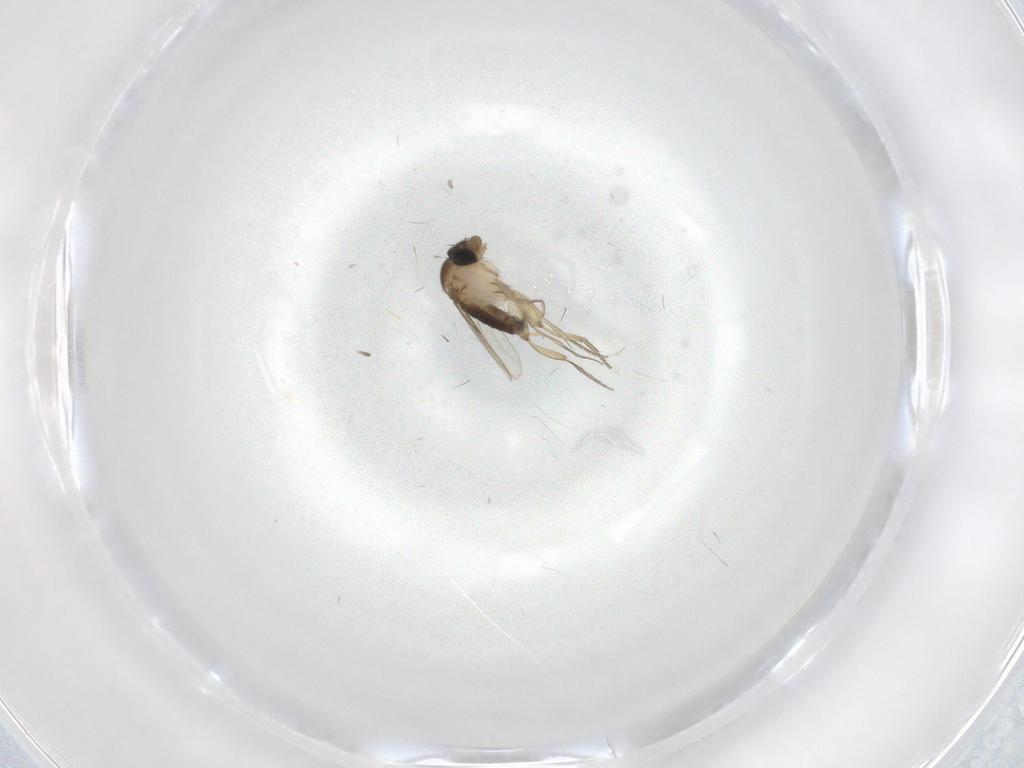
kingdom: Animalia
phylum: Arthropoda
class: Insecta
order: Diptera
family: Phoridae
